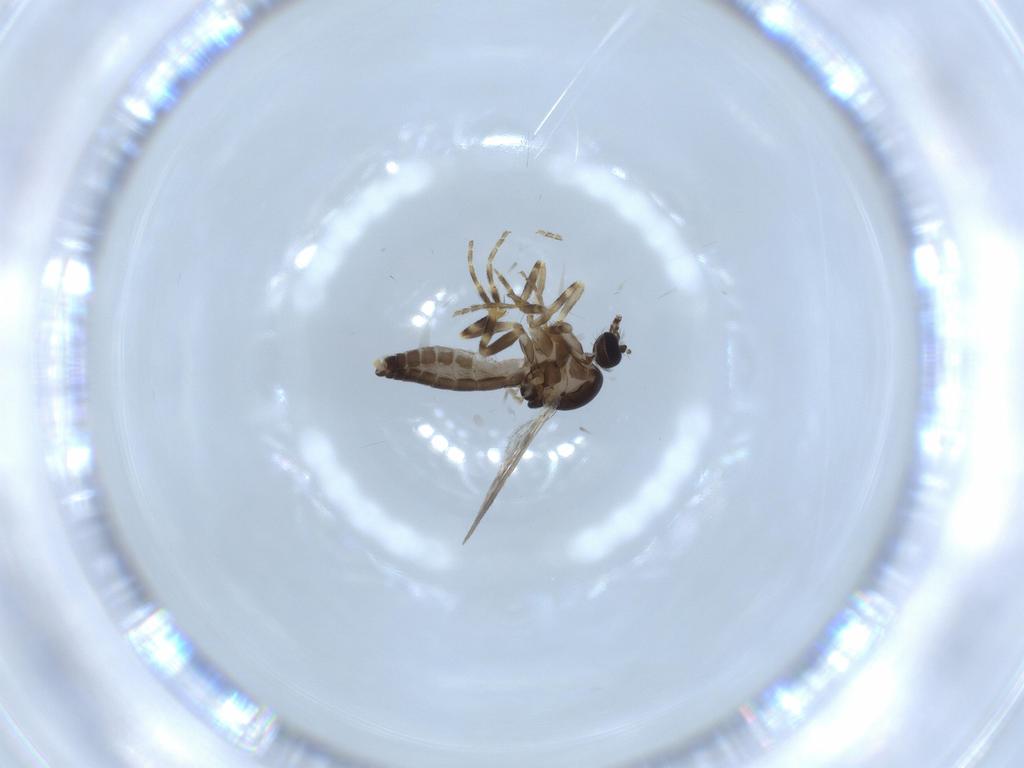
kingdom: Animalia
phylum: Arthropoda
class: Insecta
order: Diptera
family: Ceratopogonidae
